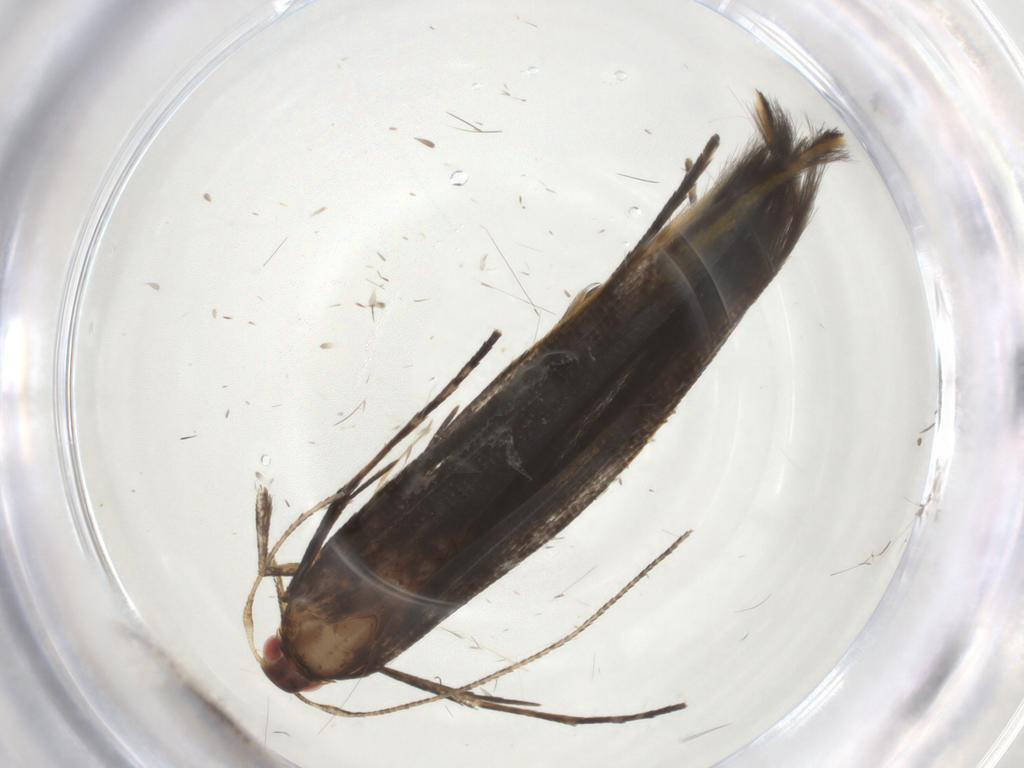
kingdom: Animalia
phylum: Arthropoda
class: Insecta
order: Lepidoptera
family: Cosmopterigidae
